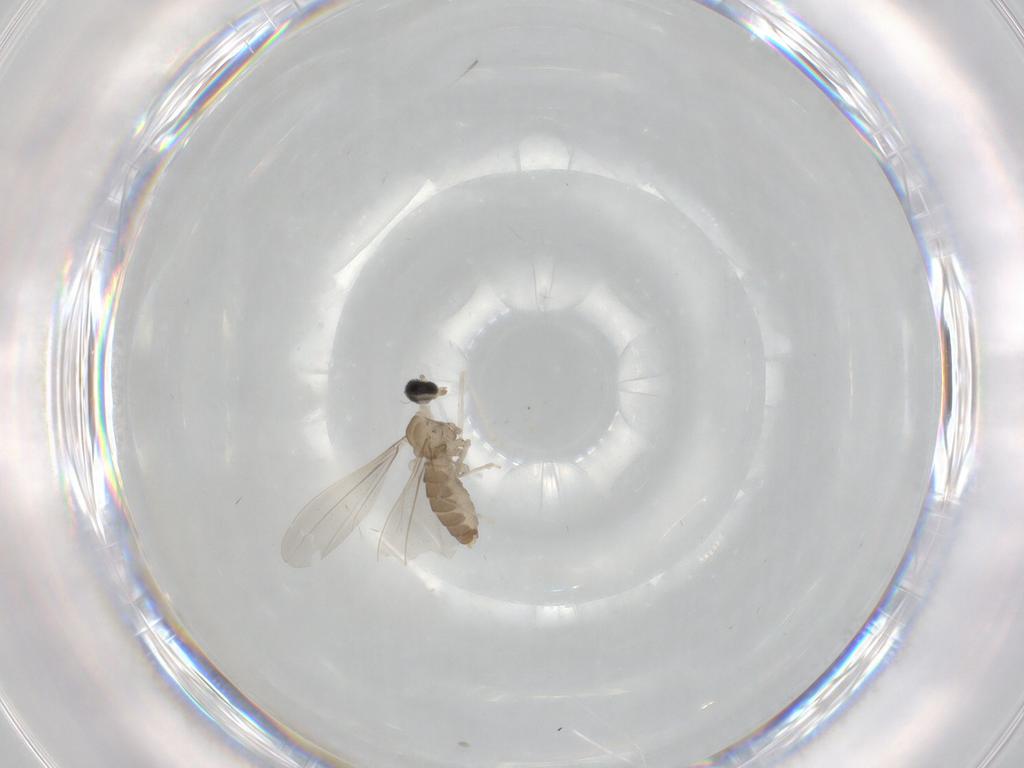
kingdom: Animalia
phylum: Arthropoda
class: Insecta
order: Diptera
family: Cecidomyiidae
